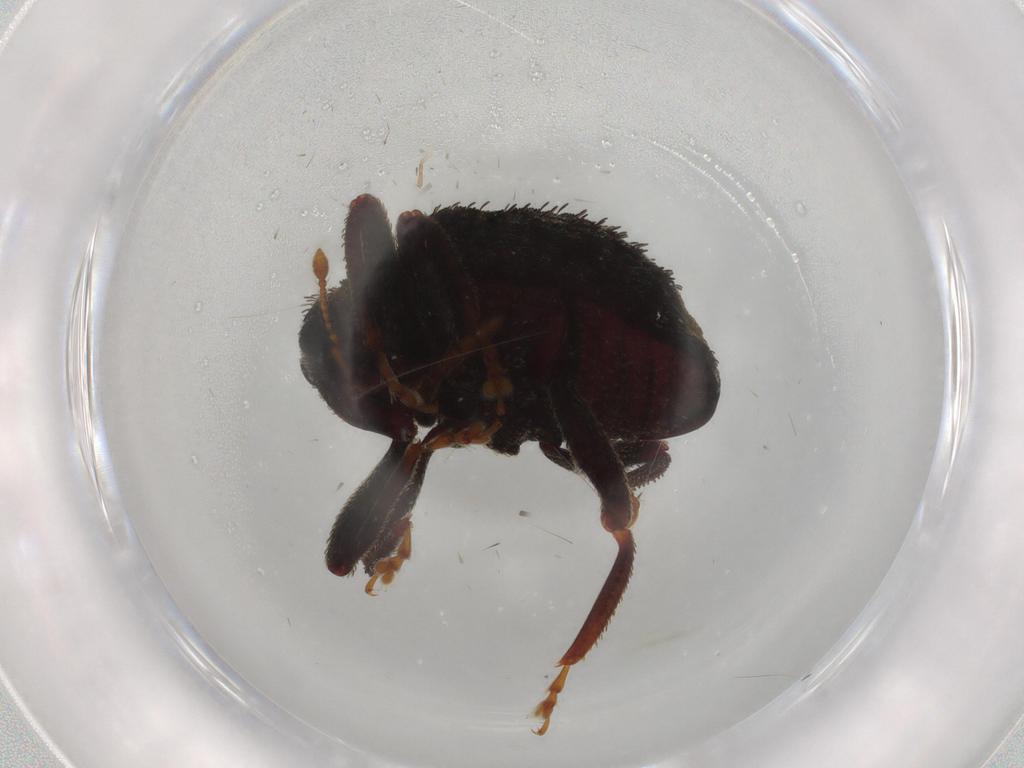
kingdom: Animalia
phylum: Arthropoda
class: Insecta
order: Coleoptera
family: Curculionidae
